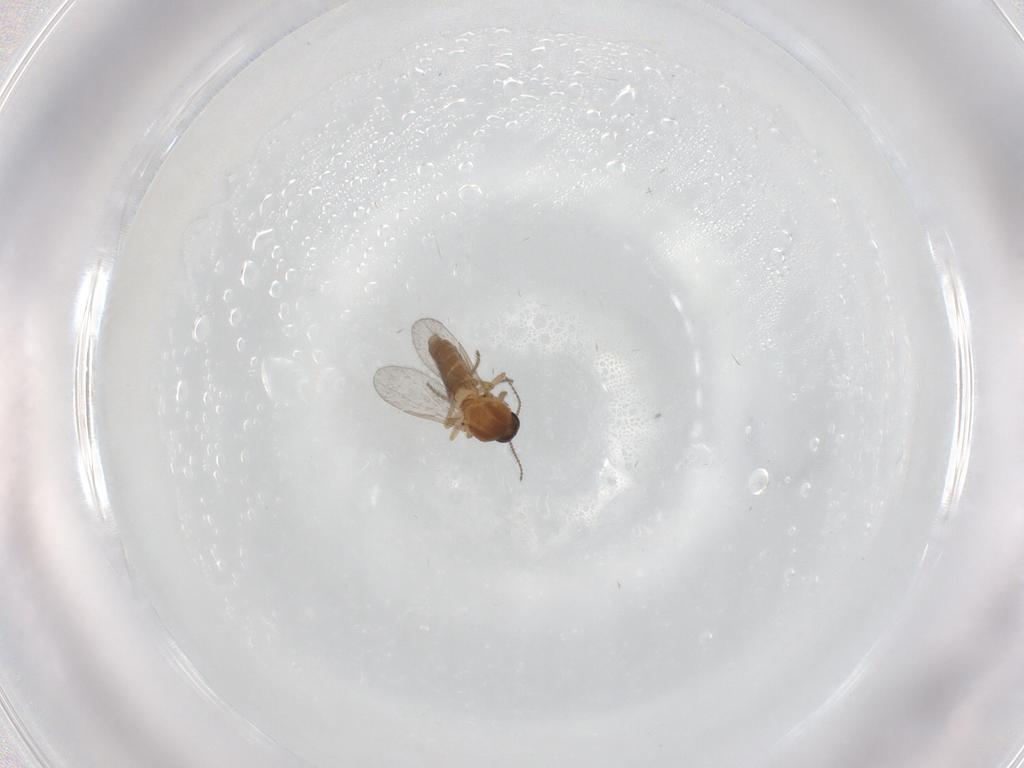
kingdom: Animalia
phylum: Arthropoda
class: Insecta
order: Diptera
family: Ceratopogonidae
